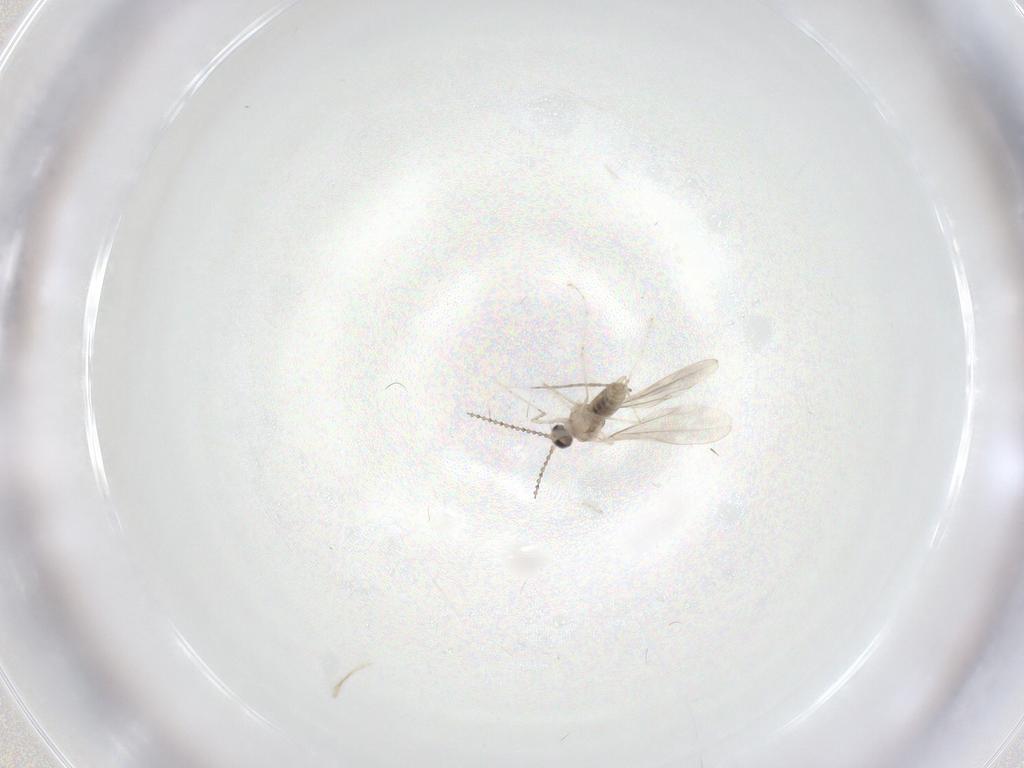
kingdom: Animalia
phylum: Arthropoda
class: Insecta
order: Diptera
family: Cecidomyiidae
